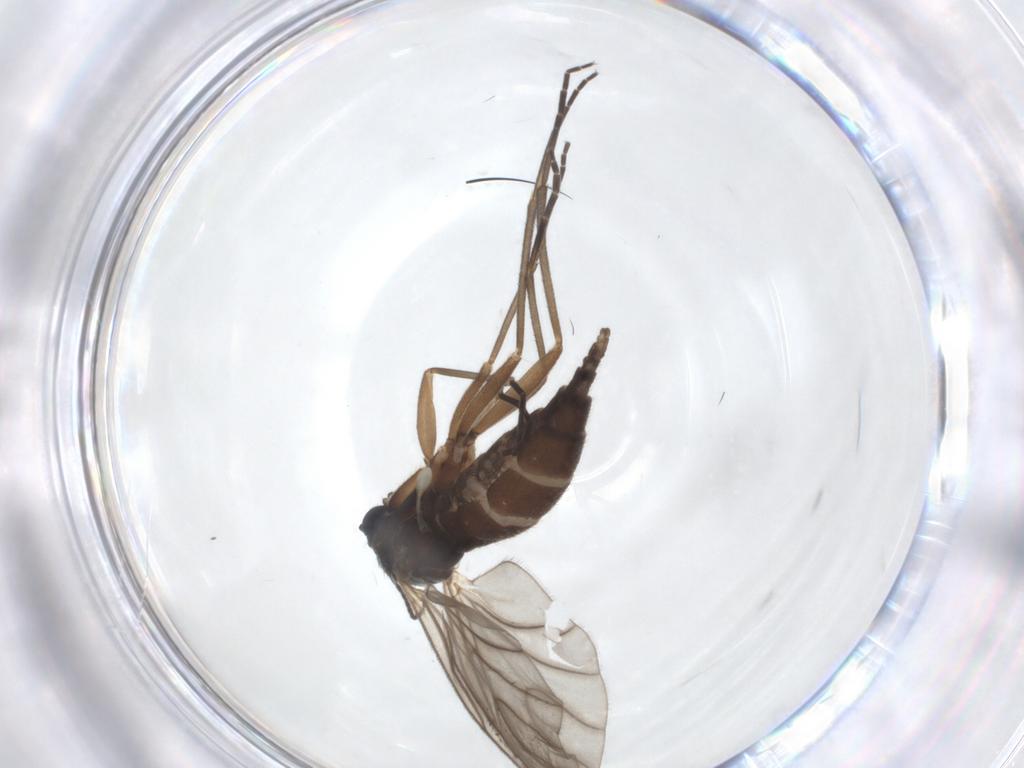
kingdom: Animalia
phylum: Arthropoda
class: Insecta
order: Diptera
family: Sciaridae
